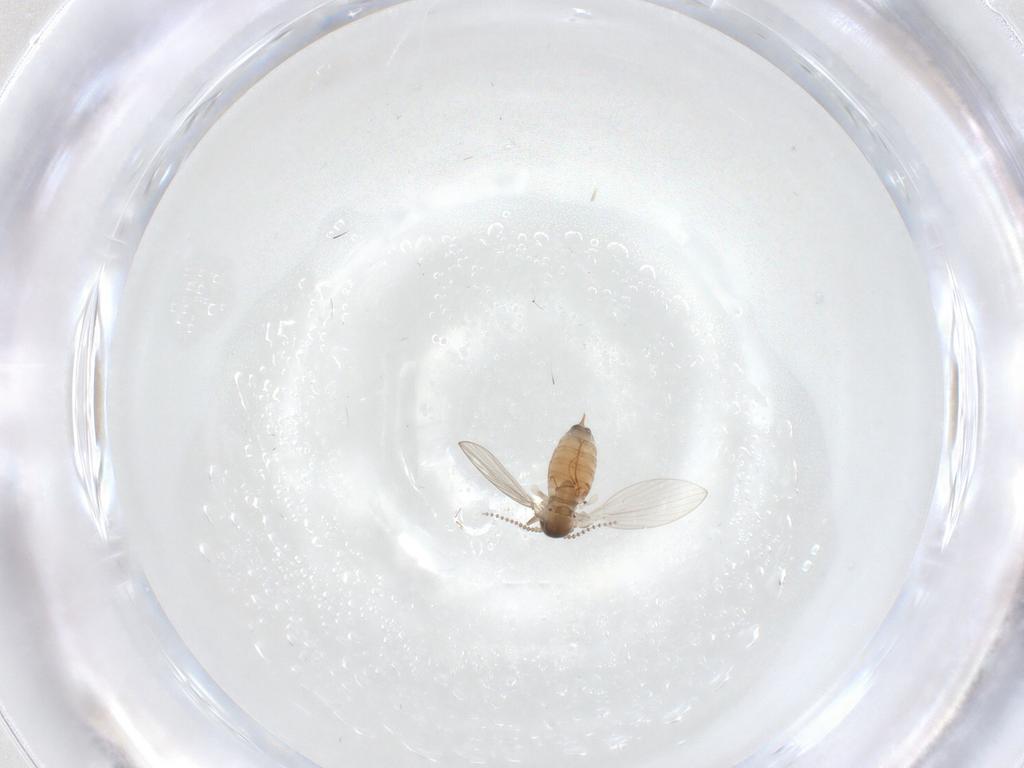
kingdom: Animalia
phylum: Arthropoda
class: Insecta
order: Diptera
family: Psychodidae
